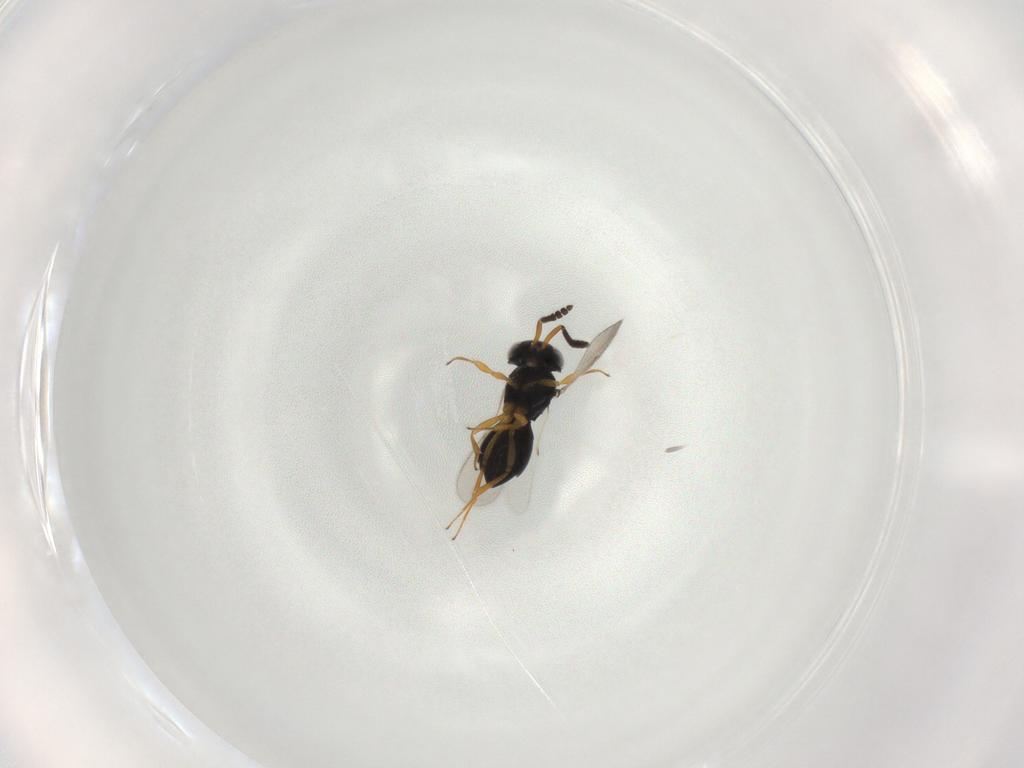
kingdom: Animalia
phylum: Arthropoda
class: Insecta
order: Hymenoptera
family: Scelionidae
